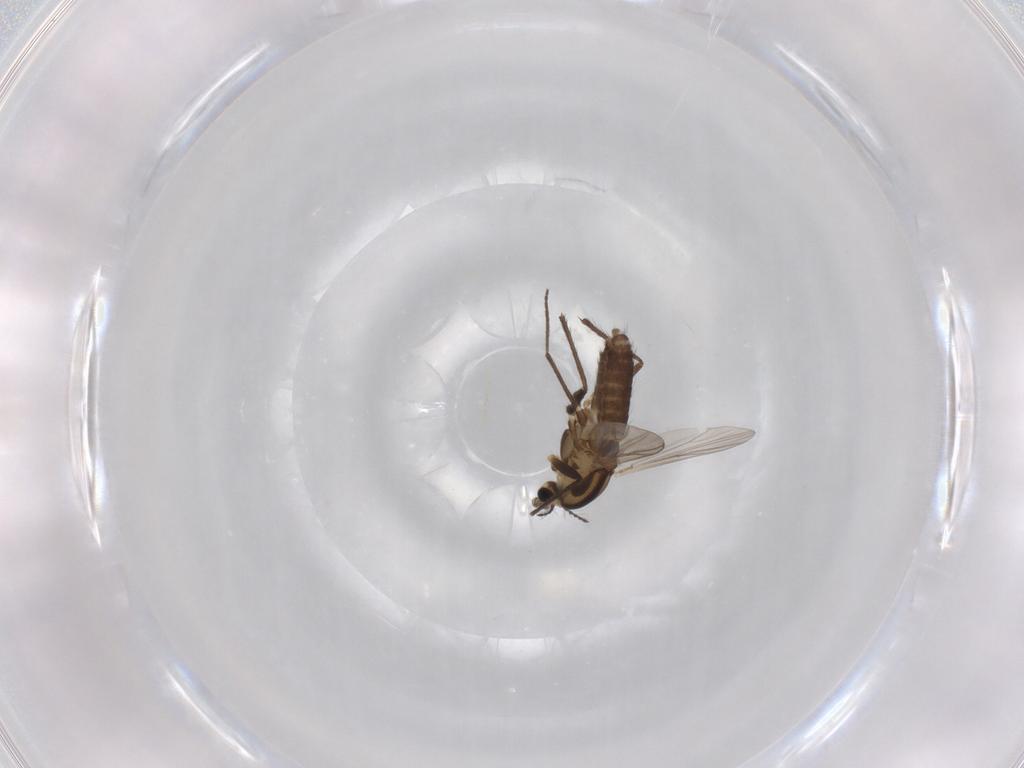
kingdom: Animalia
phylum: Arthropoda
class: Insecta
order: Diptera
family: Chironomidae
